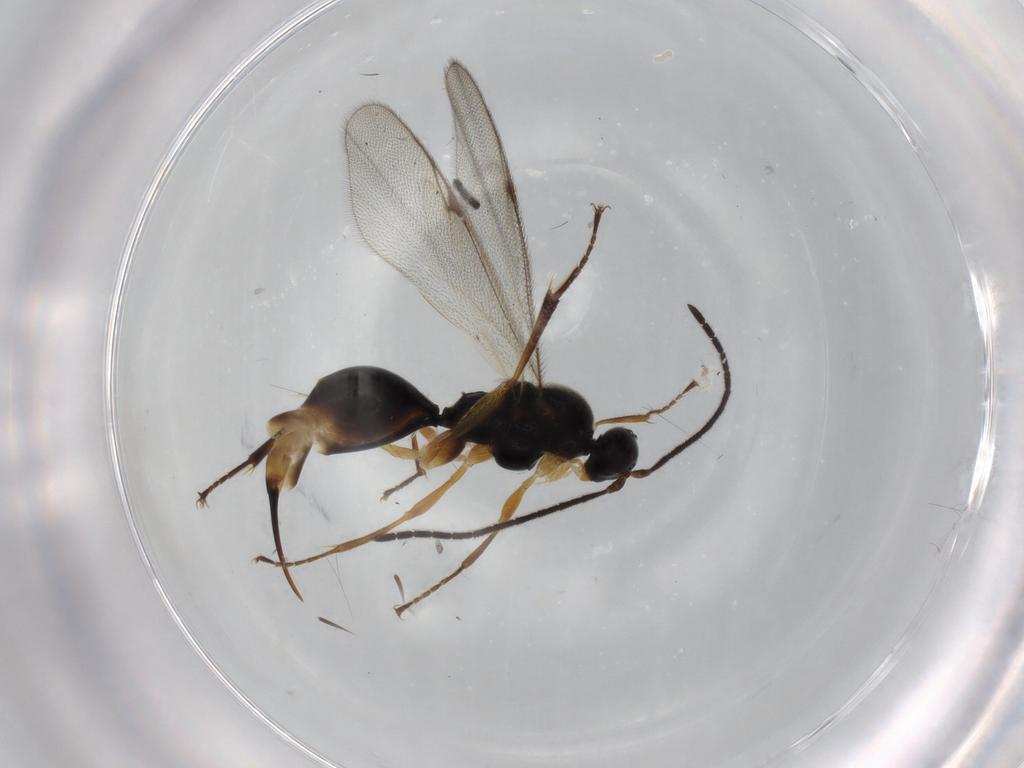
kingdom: Animalia
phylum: Arthropoda
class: Insecta
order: Hymenoptera
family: Proctotrupidae
